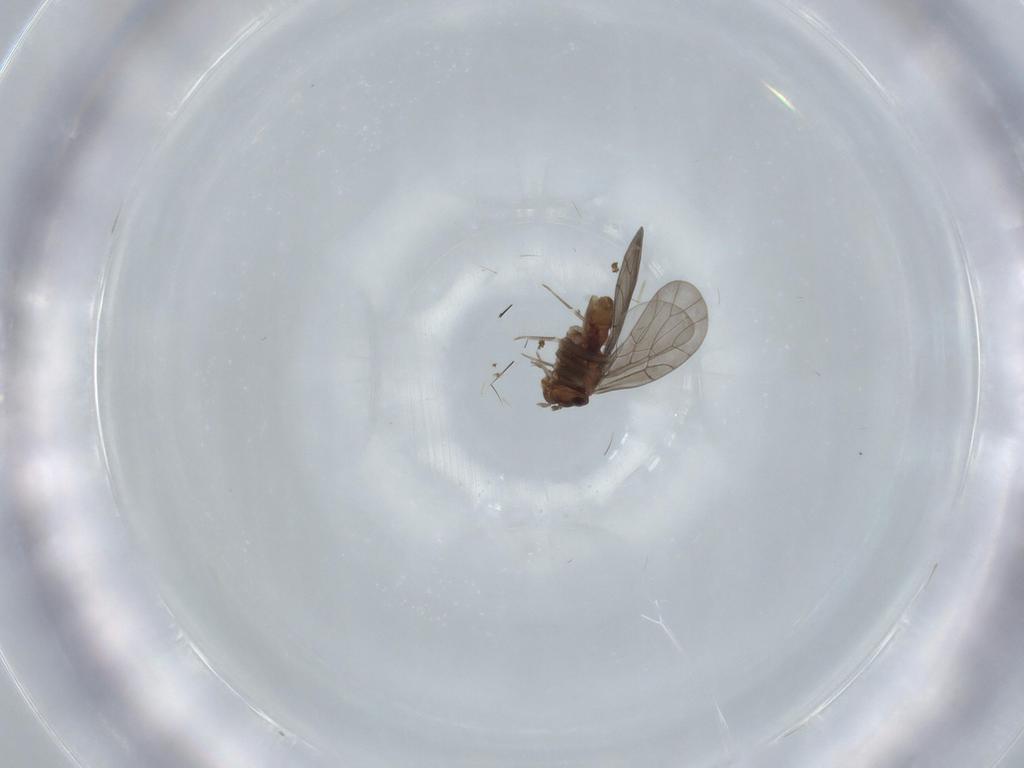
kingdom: Animalia
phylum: Arthropoda
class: Insecta
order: Psocodea
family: Lepidopsocidae
